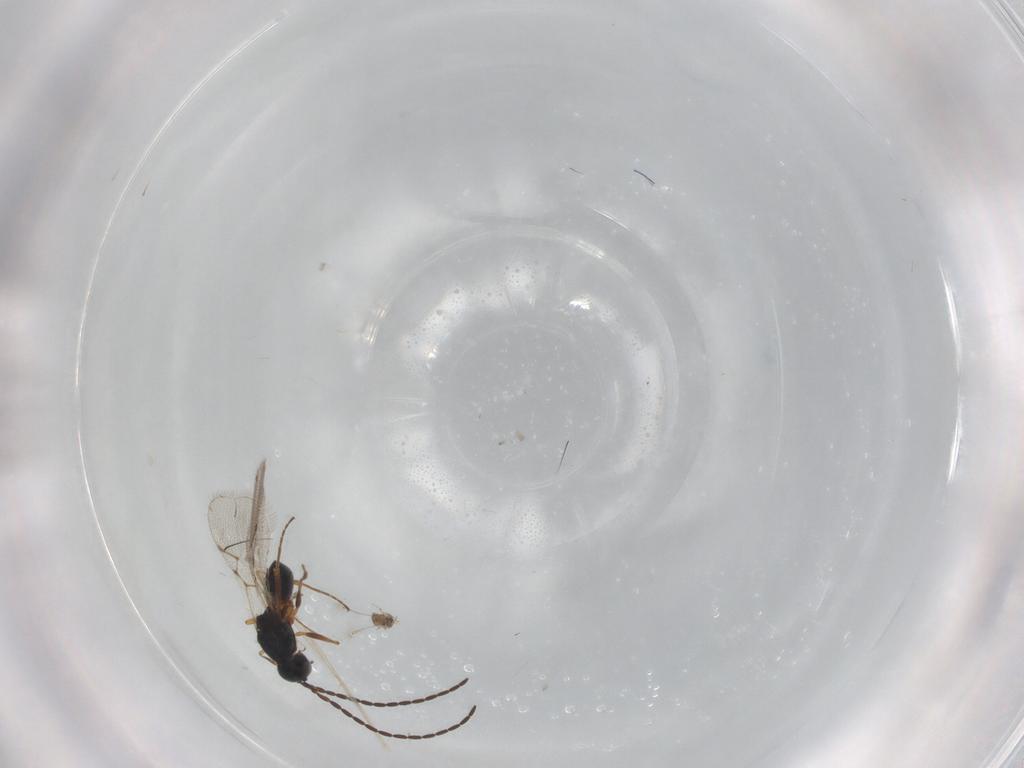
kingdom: Animalia
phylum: Arthropoda
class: Insecta
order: Hymenoptera
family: Figitidae
